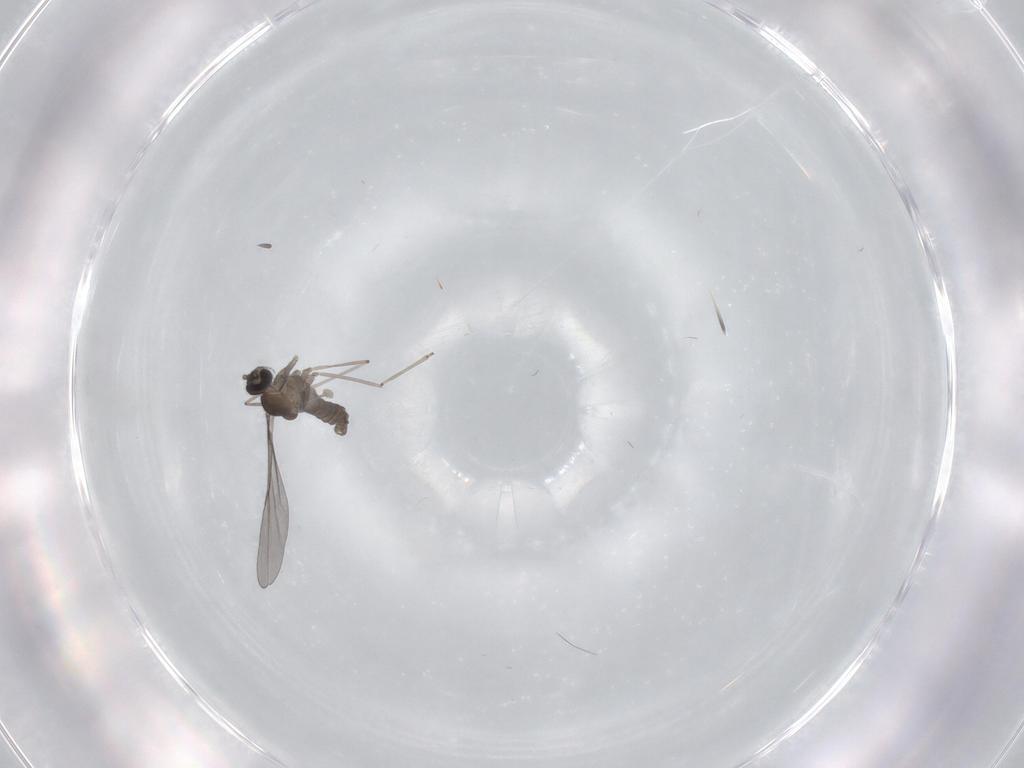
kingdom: Animalia
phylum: Arthropoda
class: Insecta
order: Diptera
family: Cecidomyiidae
